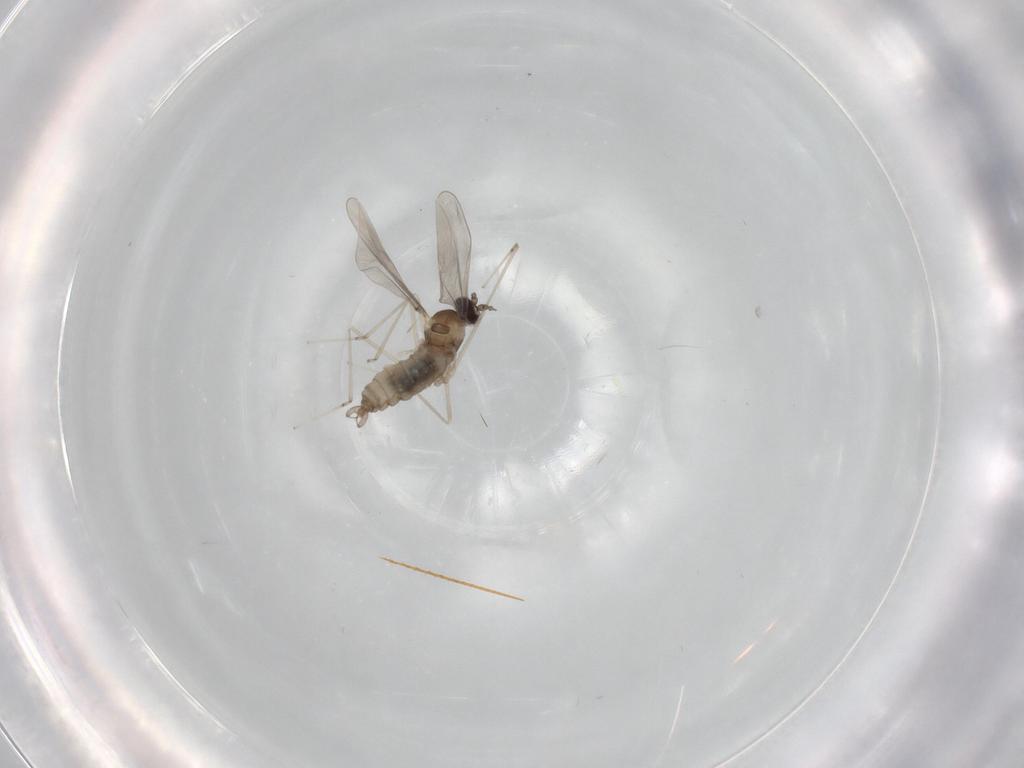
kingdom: Animalia
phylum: Arthropoda
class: Insecta
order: Diptera
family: Cecidomyiidae
